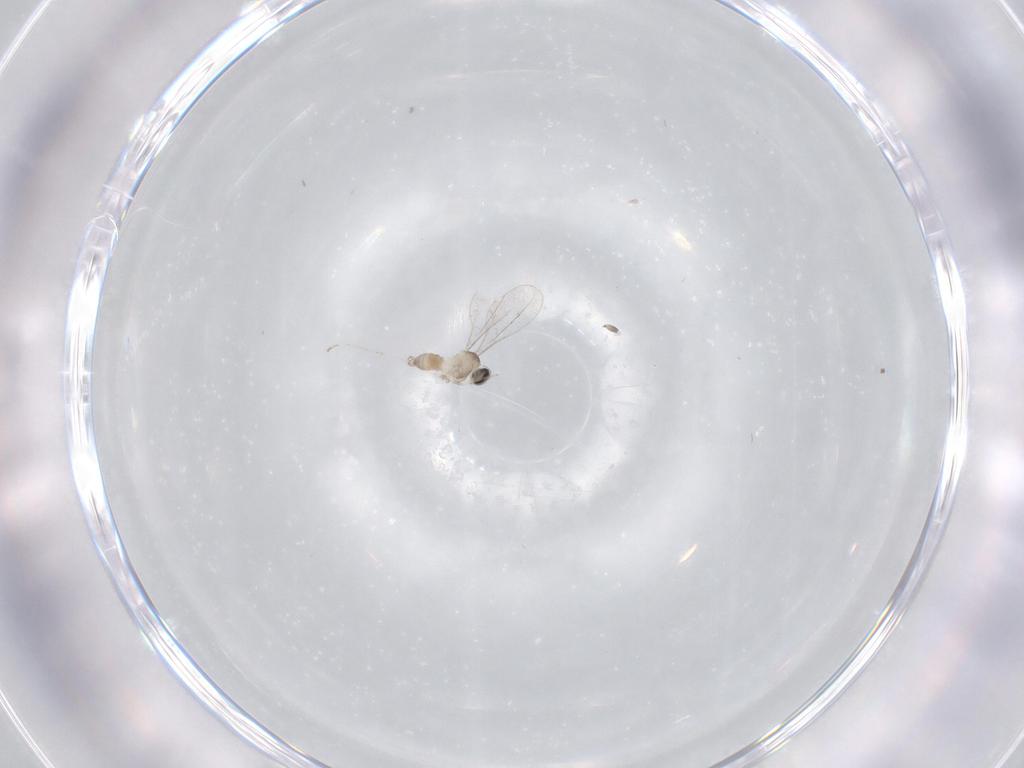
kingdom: Animalia
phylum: Arthropoda
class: Insecta
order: Diptera
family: Cecidomyiidae
